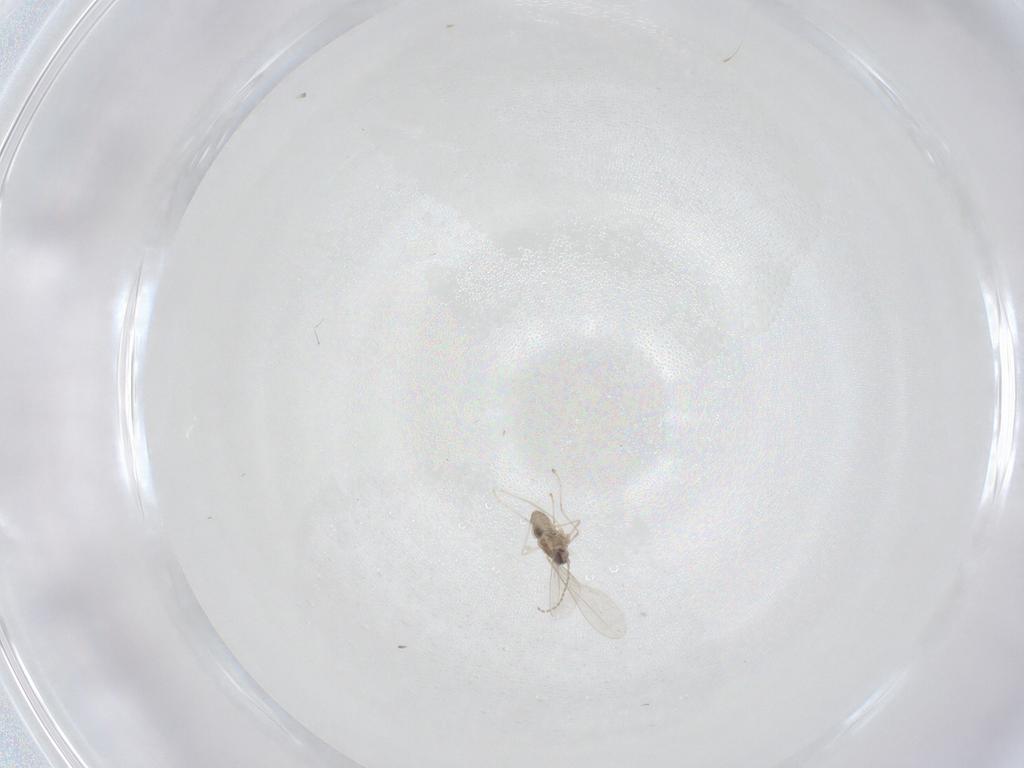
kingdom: Animalia
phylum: Arthropoda
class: Insecta
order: Diptera
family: Cecidomyiidae
